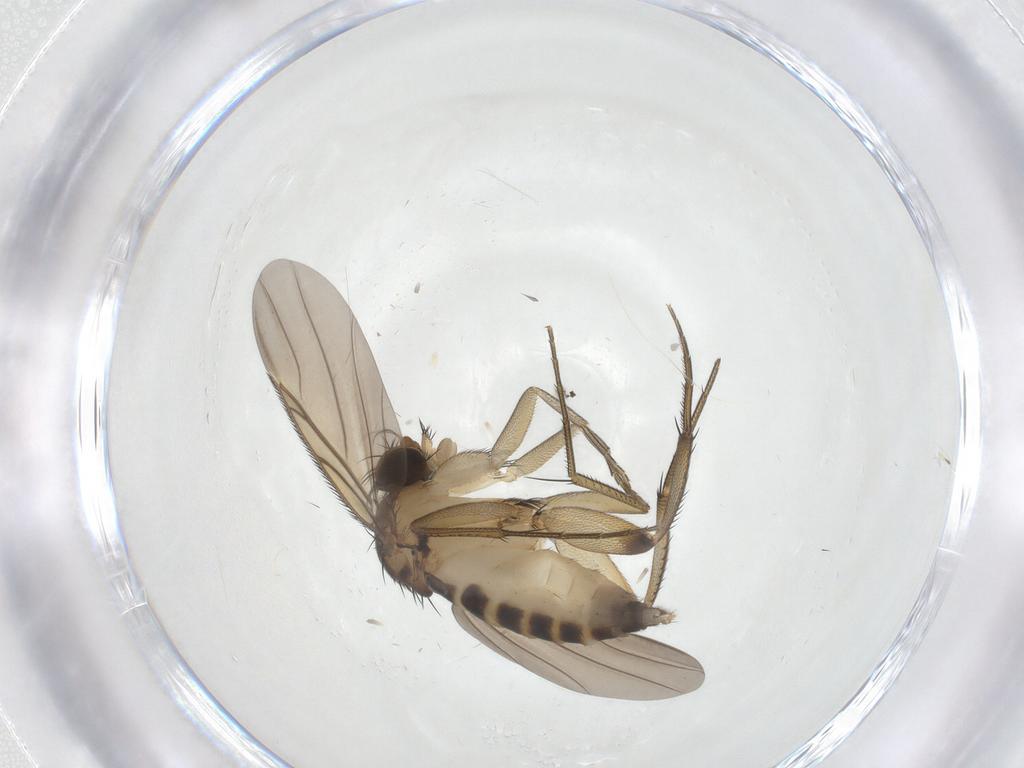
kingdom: Animalia
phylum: Arthropoda
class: Insecta
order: Diptera
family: Phoridae
